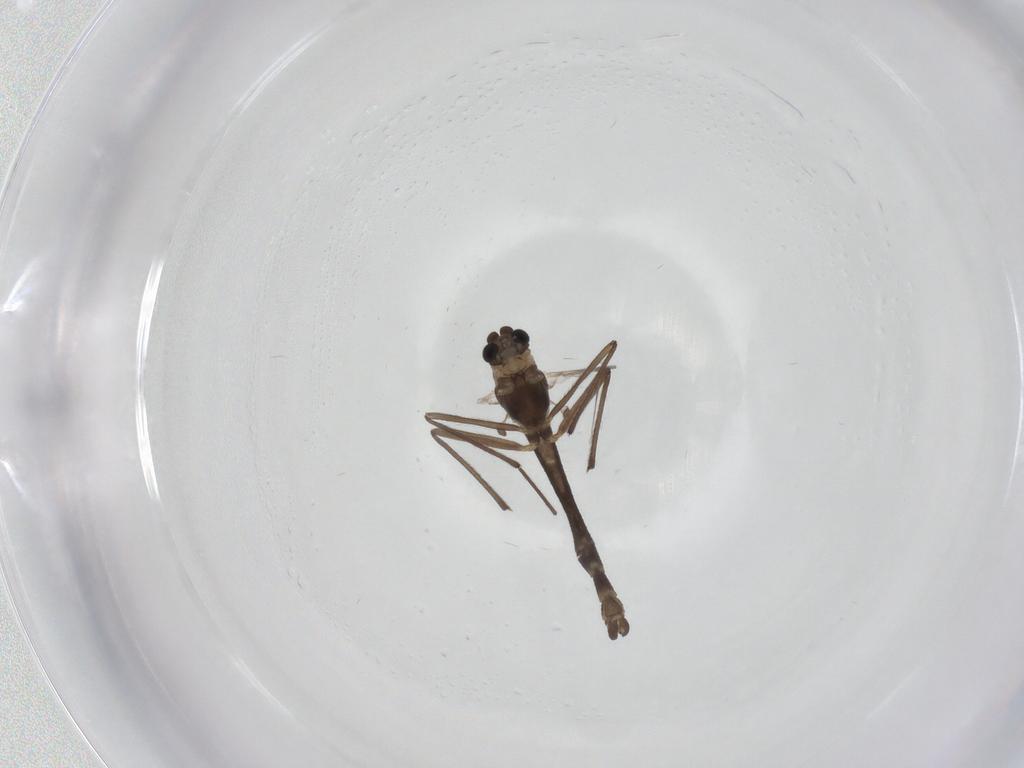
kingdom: Animalia
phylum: Arthropoda
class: Insecta
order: Diptera
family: Chironomidae
